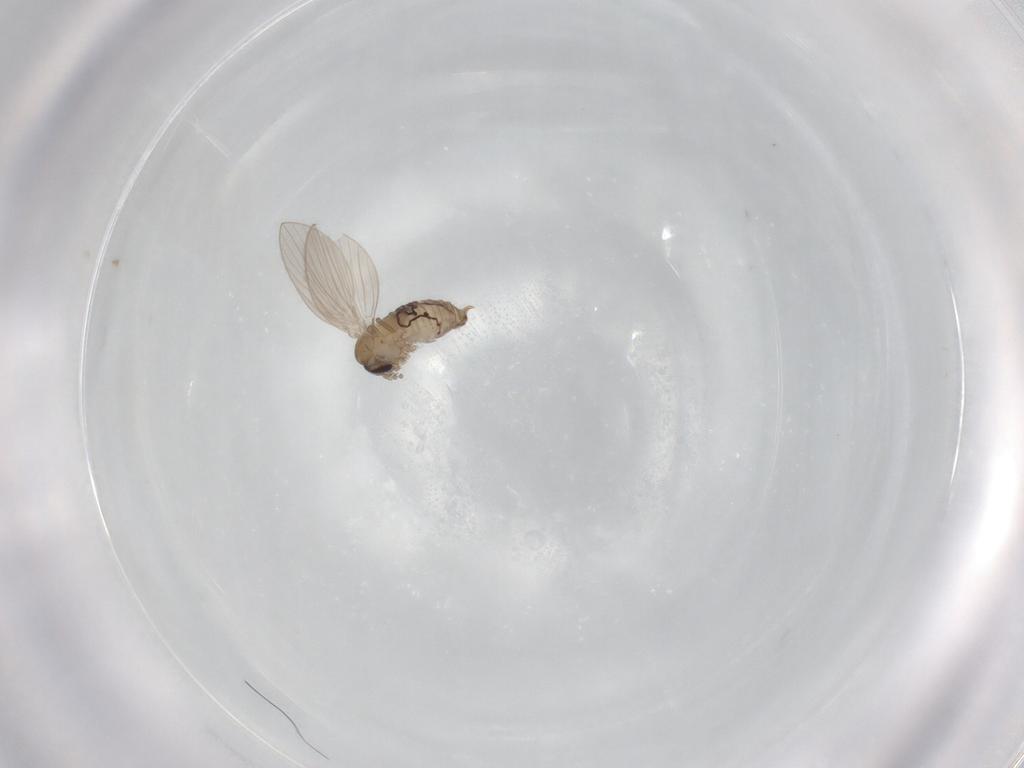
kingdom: Animalia
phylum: Arthropoda
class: Insecta
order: Diptera
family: Psychodidae
